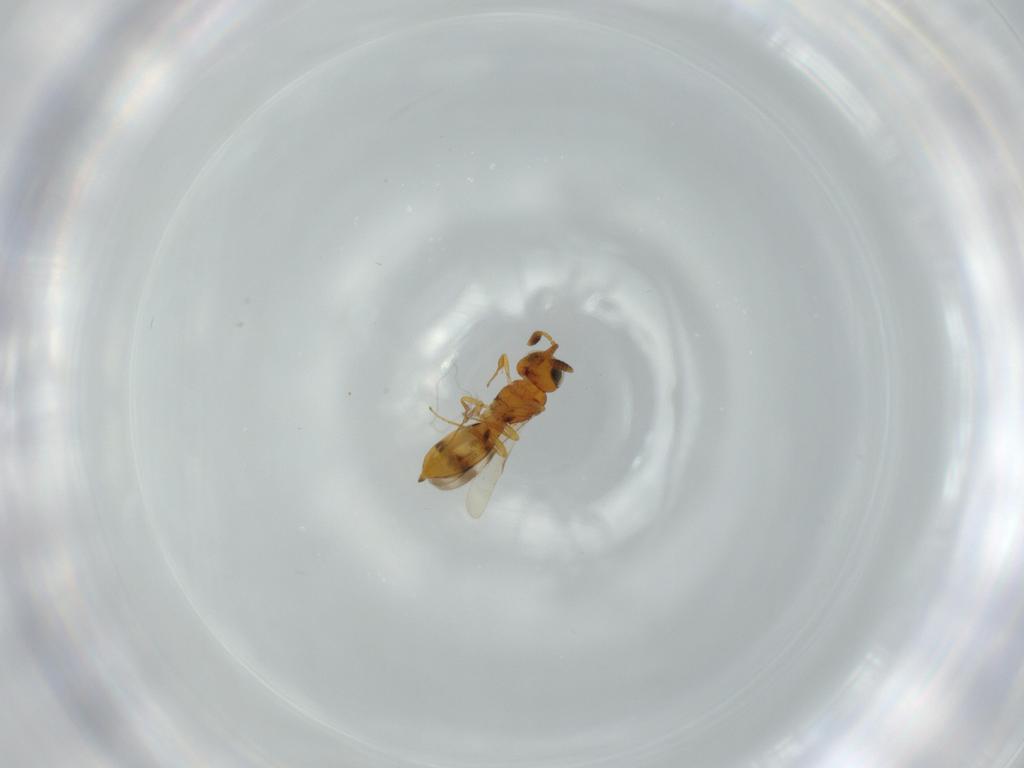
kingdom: Animalia
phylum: Arthropoda
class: Insecta
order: Hymenoptera
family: Scelionidae
